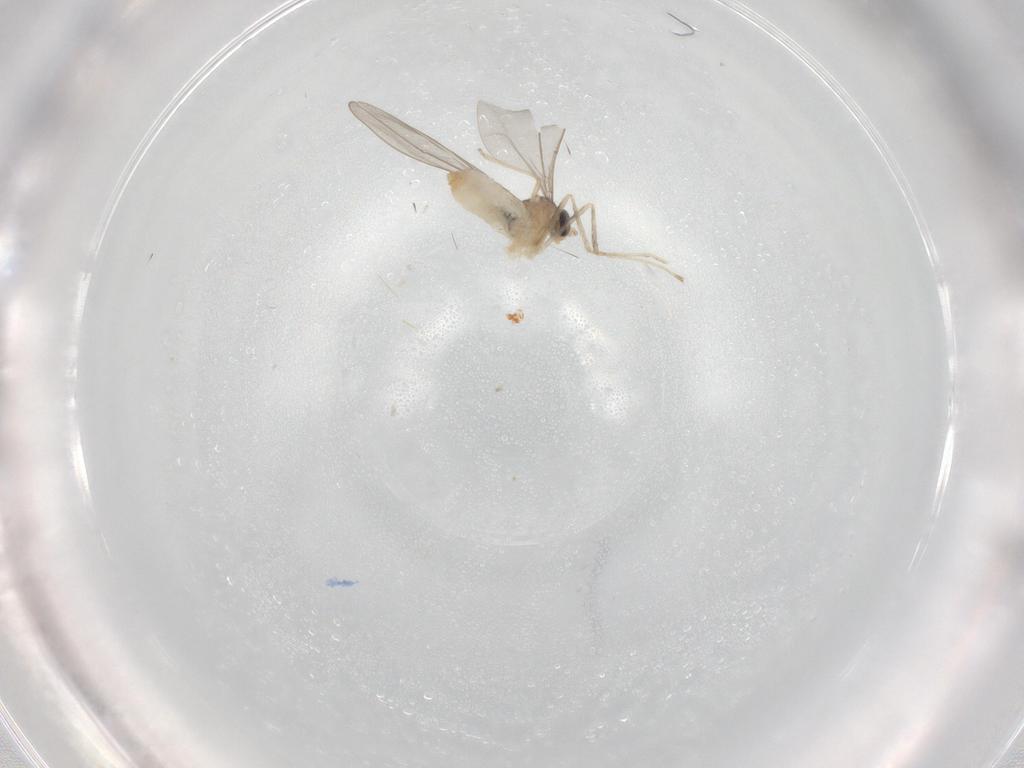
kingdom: Animalia
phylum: Arthropoda
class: Insecta
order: Diptera
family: Cecidomyiidae
